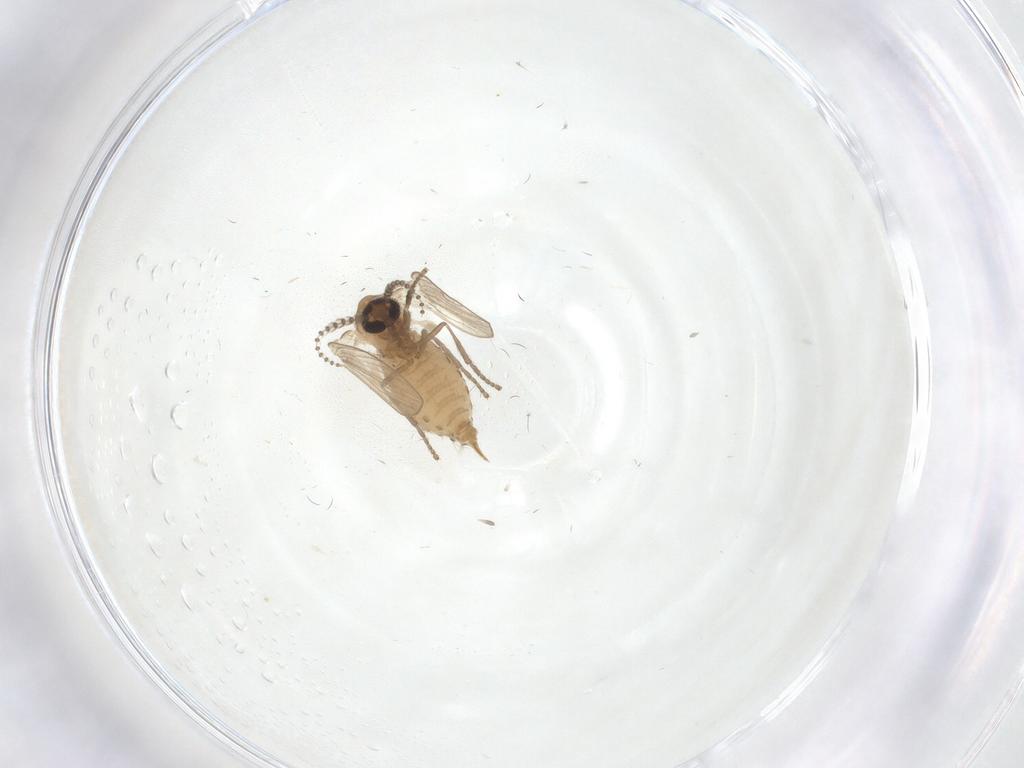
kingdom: Animalia
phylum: Arthropoda
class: Insecta
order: Diptera
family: Psychodidae
